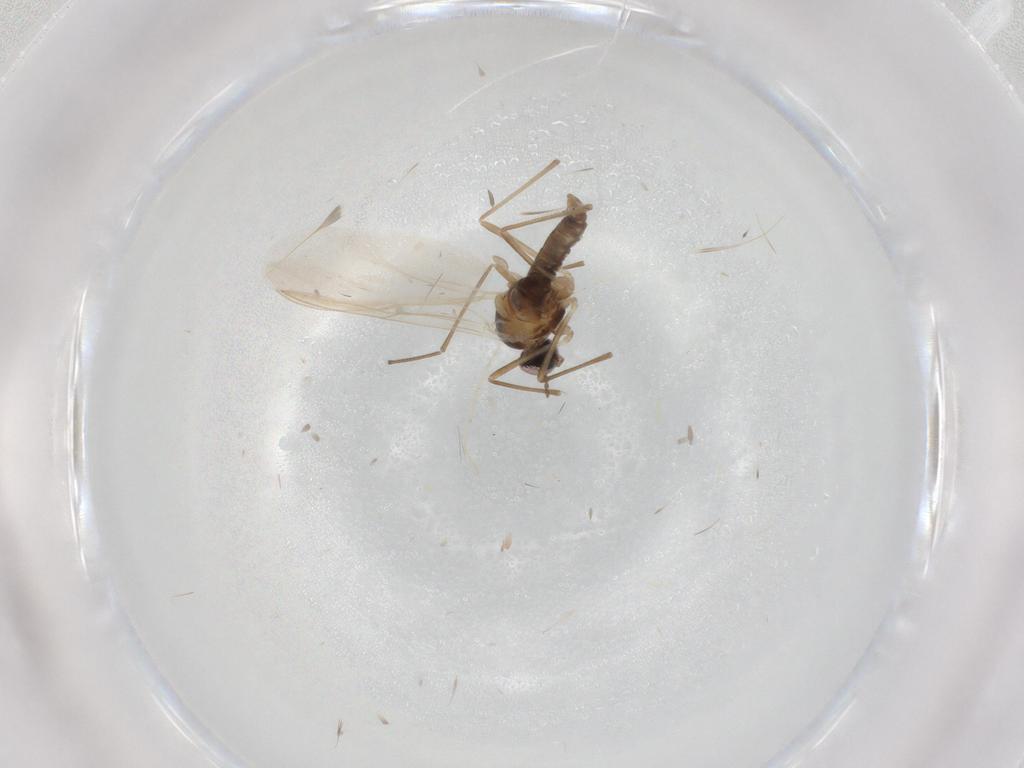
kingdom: Animalia
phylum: Arthropoda
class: Insecta
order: Diptera
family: Cecidomyiidae
